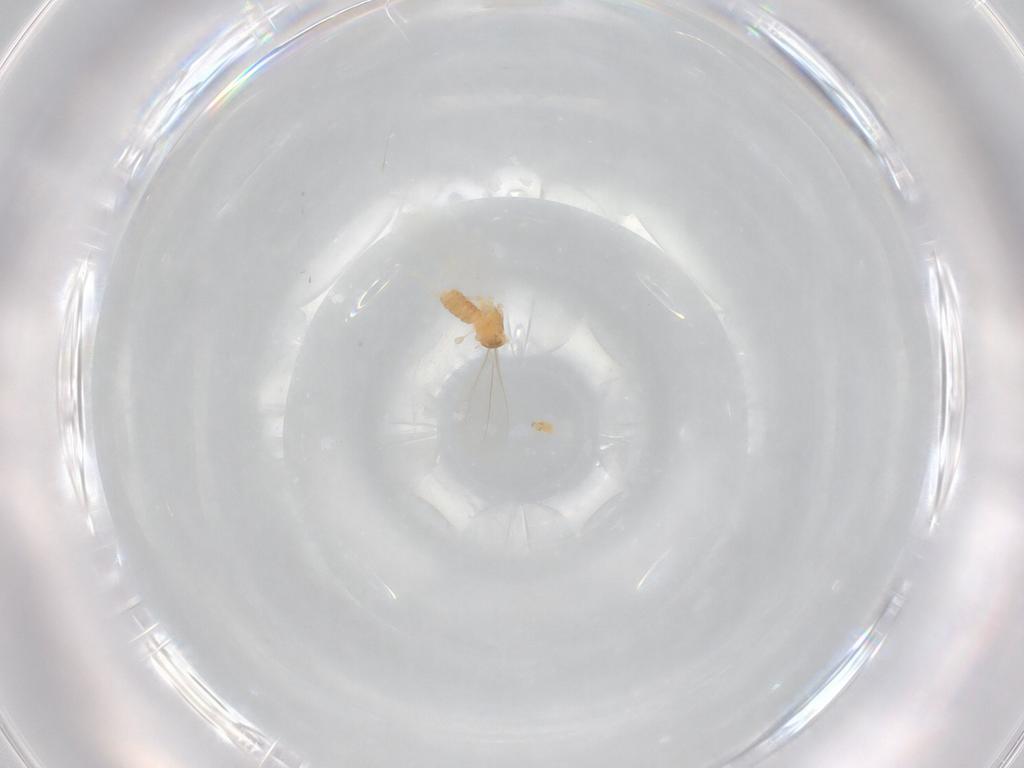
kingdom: Animalia
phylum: Arthropoda
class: Insecta
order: Diptera
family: Cecidomyiidae
